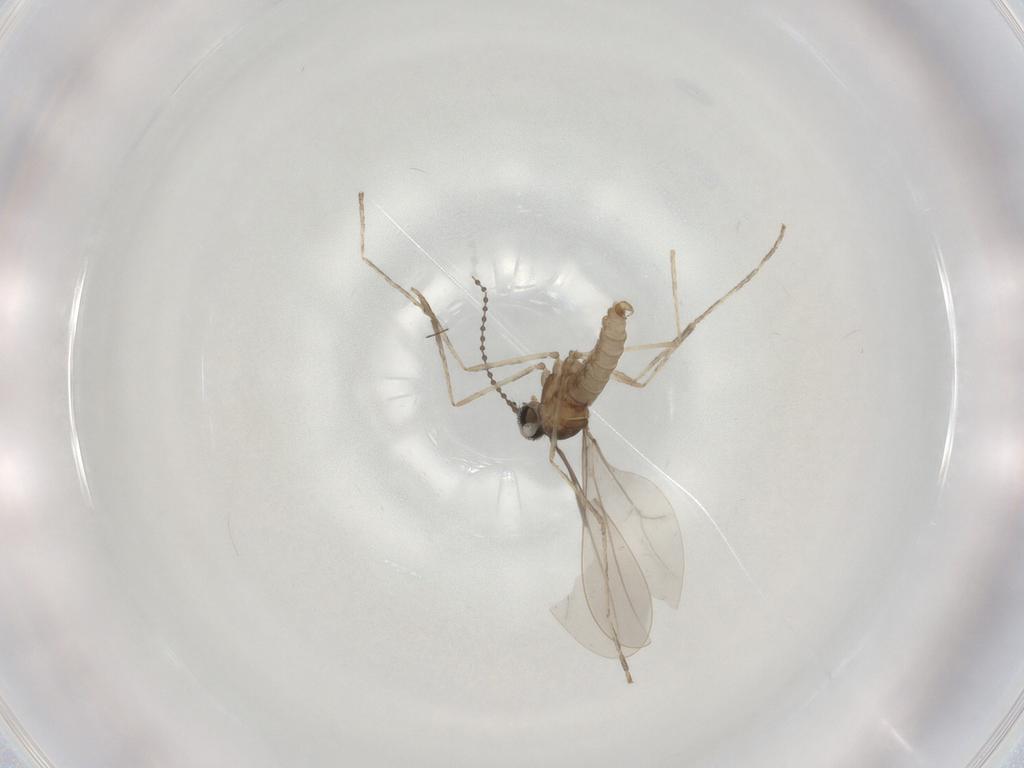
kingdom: Animalia
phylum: Arthropoda
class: Insecta
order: Diptera
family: Cecidomyiidae
